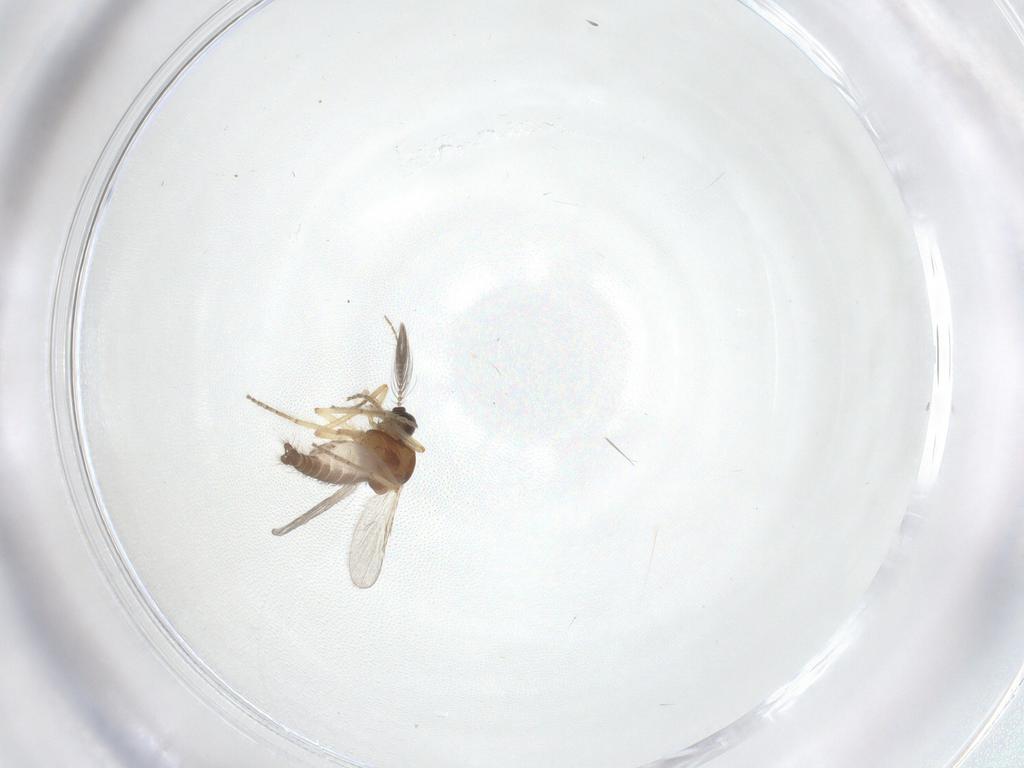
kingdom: Animalia
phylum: Arthropoda
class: Insecta
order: Diptera
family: Ceratopogonidae
